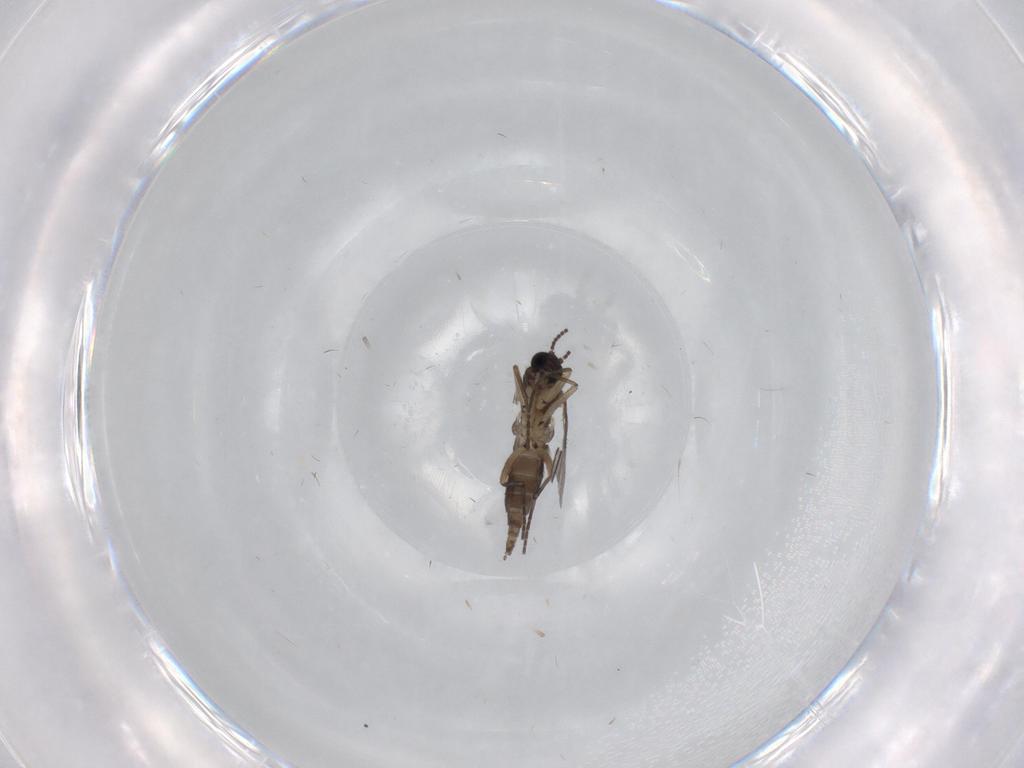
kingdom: Animalia
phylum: Arthropoda
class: Insecta
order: Diptera
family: Sciaridae
